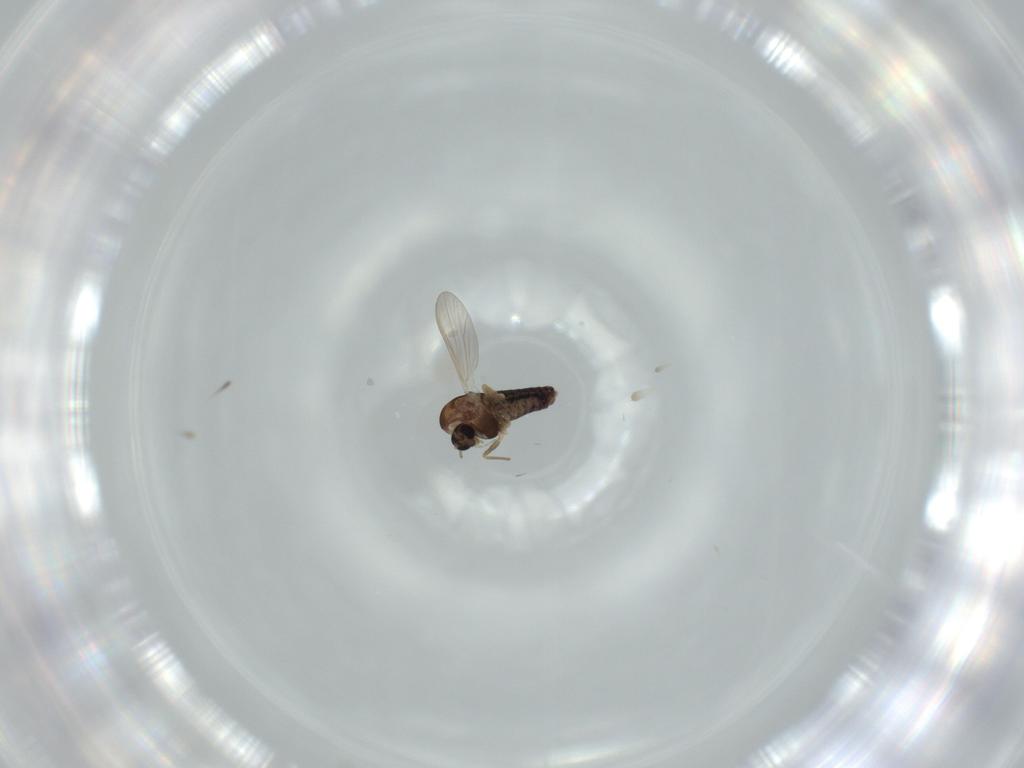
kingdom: Animalia
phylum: Arthropoda
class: Insecta
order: Diptera
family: Chironomidae
